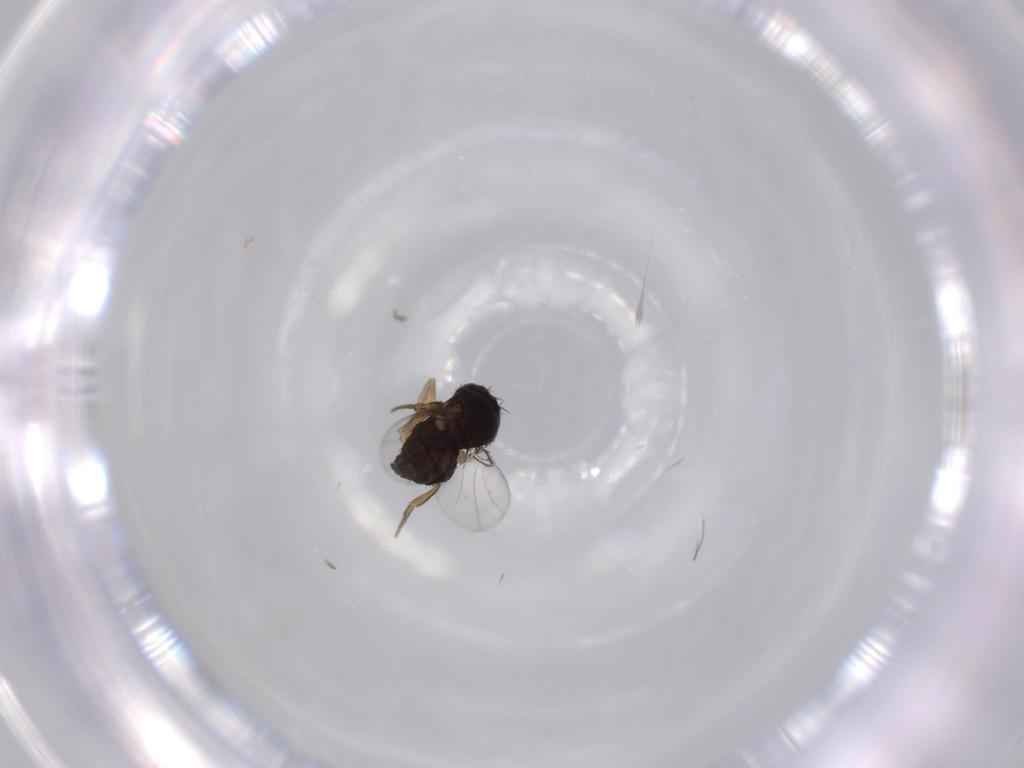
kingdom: Animalia
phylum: Arthropoda
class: Insecta
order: Diptera
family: Phoridae
